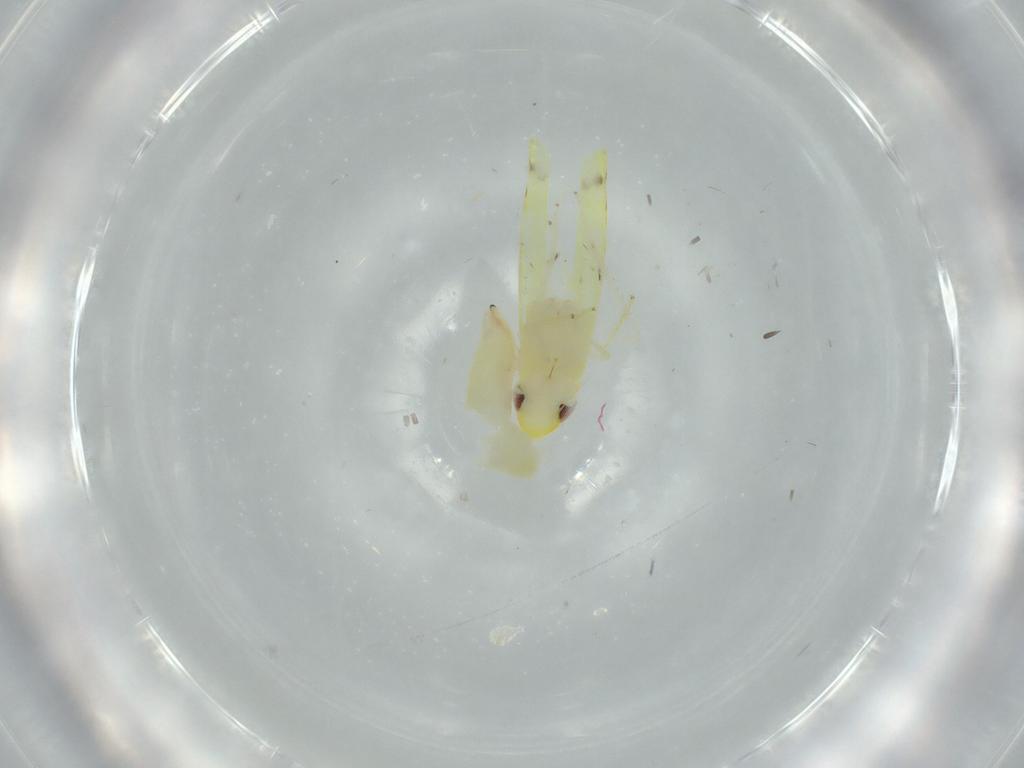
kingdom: Animalia
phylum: Arthropoda
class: Insecta
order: Hemiptera
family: Cicadellidae
